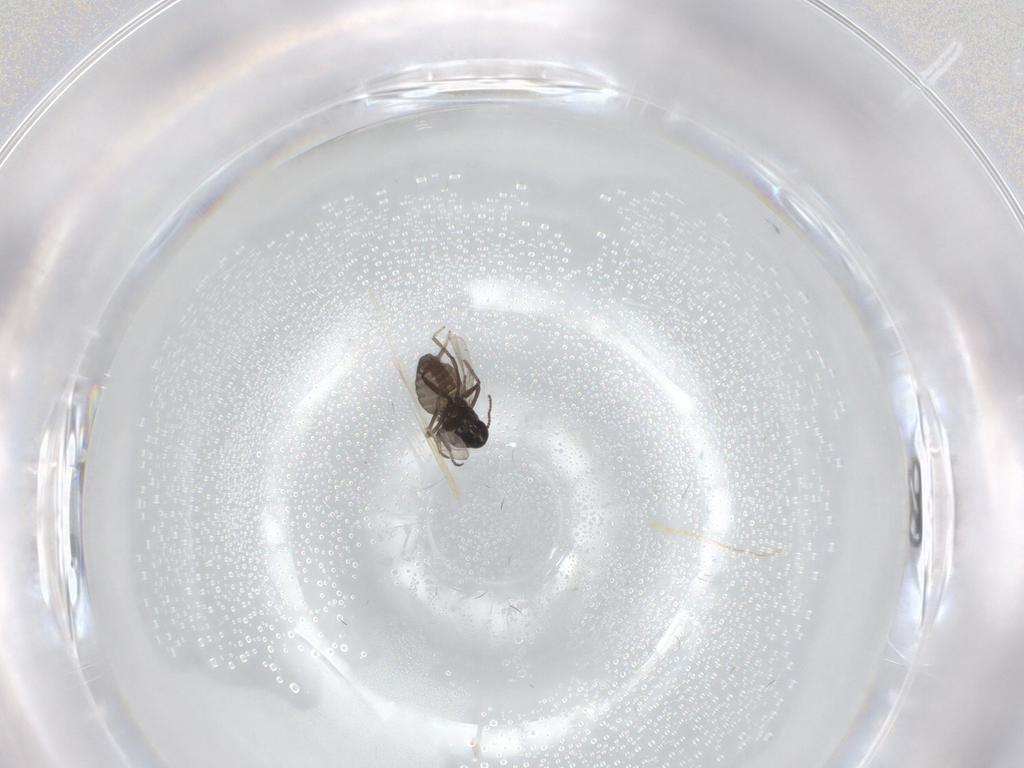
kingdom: Animalia
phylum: Arthropoda
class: Insecta
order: Diptera
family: Ceratopogonidae
